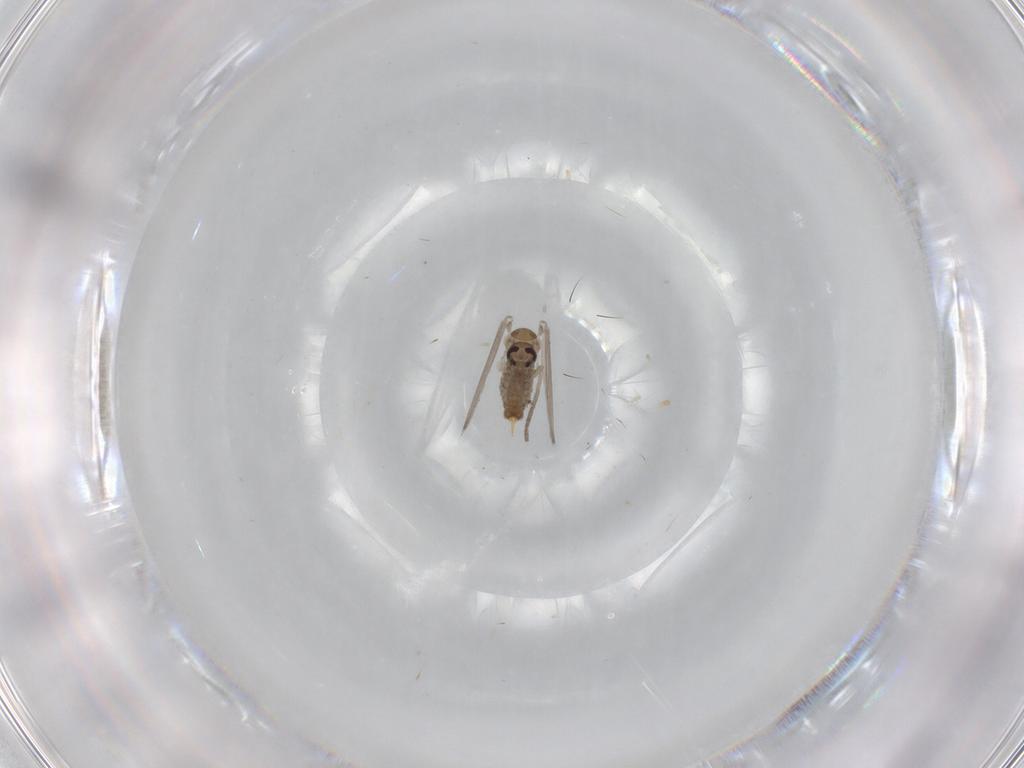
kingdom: Animalia
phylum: Arthropoda
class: Insecta
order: Diptera
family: Psychodidae
